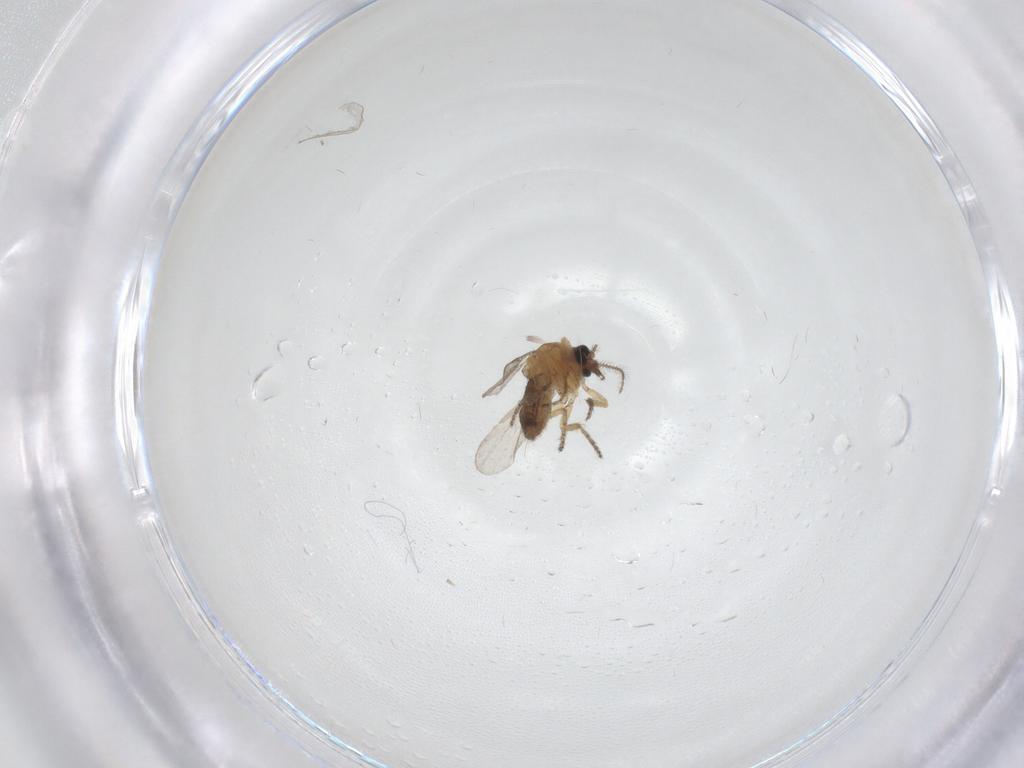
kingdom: Animalia
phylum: Arthropoda
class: Insecta
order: Diptera
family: Ceratopogonidae
